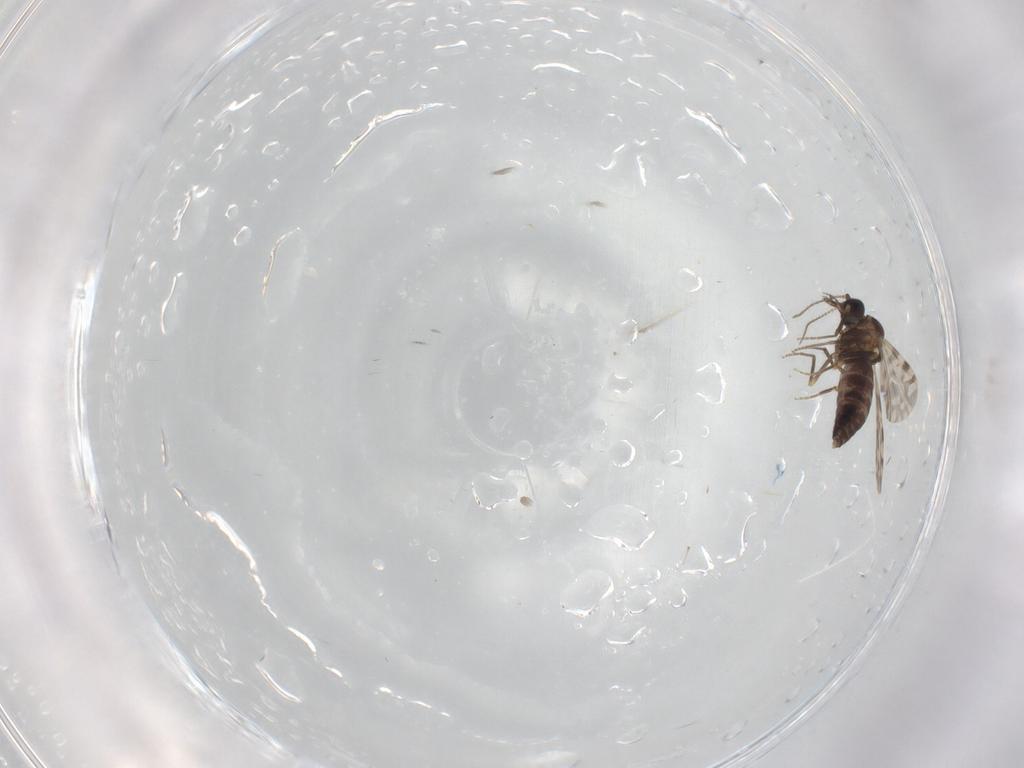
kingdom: Animalia
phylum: Arthropoda
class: Insecta
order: Diptera
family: Ceratopogonidae
